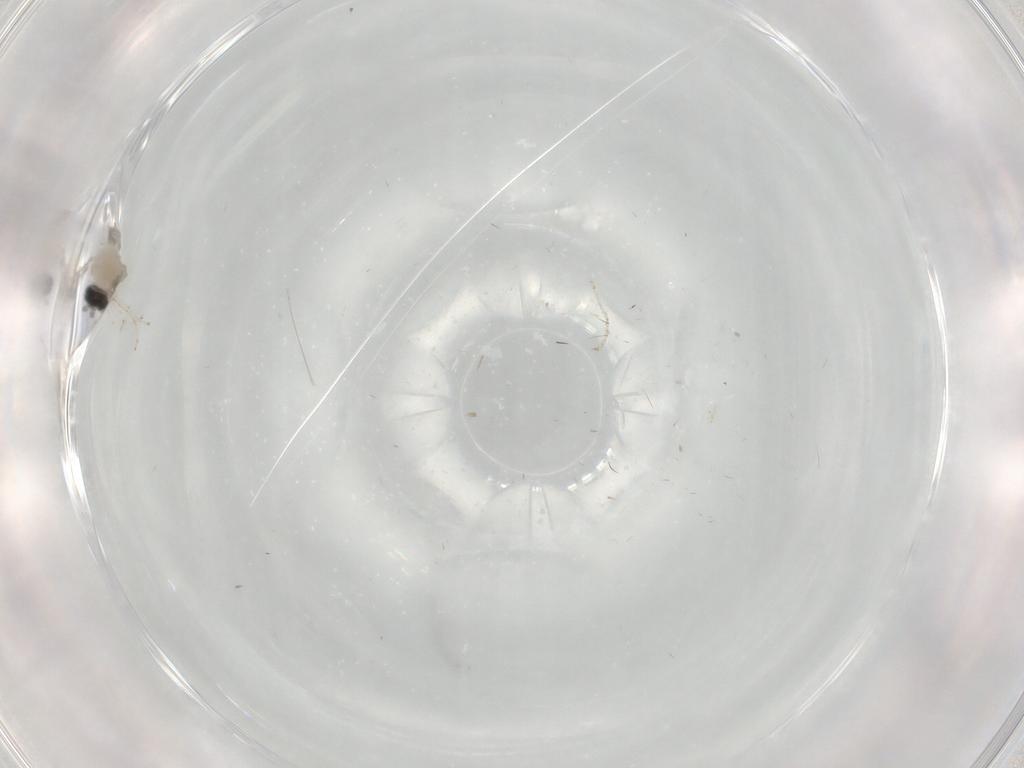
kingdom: Animalia
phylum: Arthropoda
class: Insecta
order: Diptera
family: Cecidomyiidae
